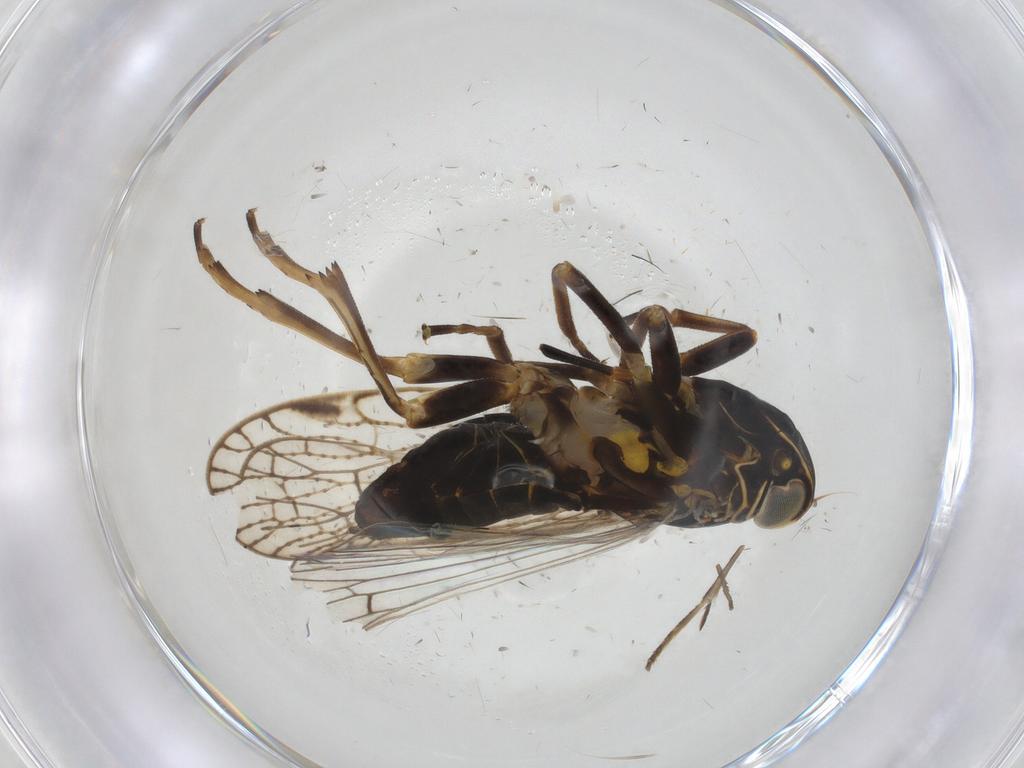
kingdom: Animalia
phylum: Arthropoda
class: Insecta
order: Hemiptera
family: Cixiidae
